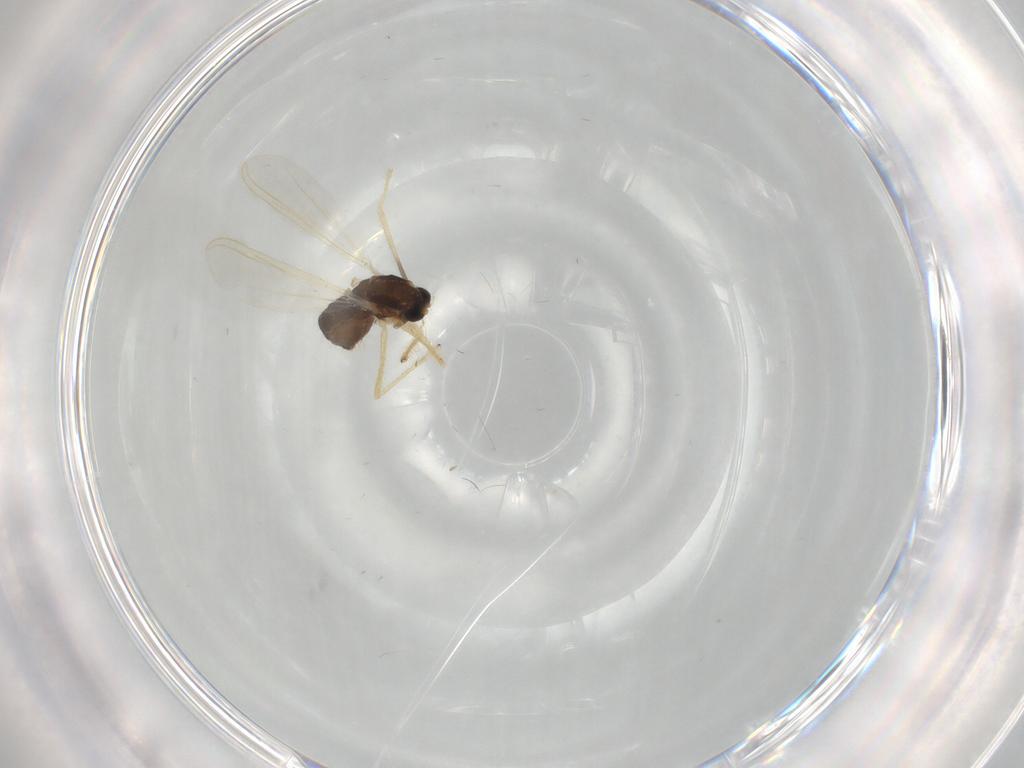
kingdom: Animalia
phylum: Arthropoda
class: Insecta
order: Diptera
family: Chironomidae
